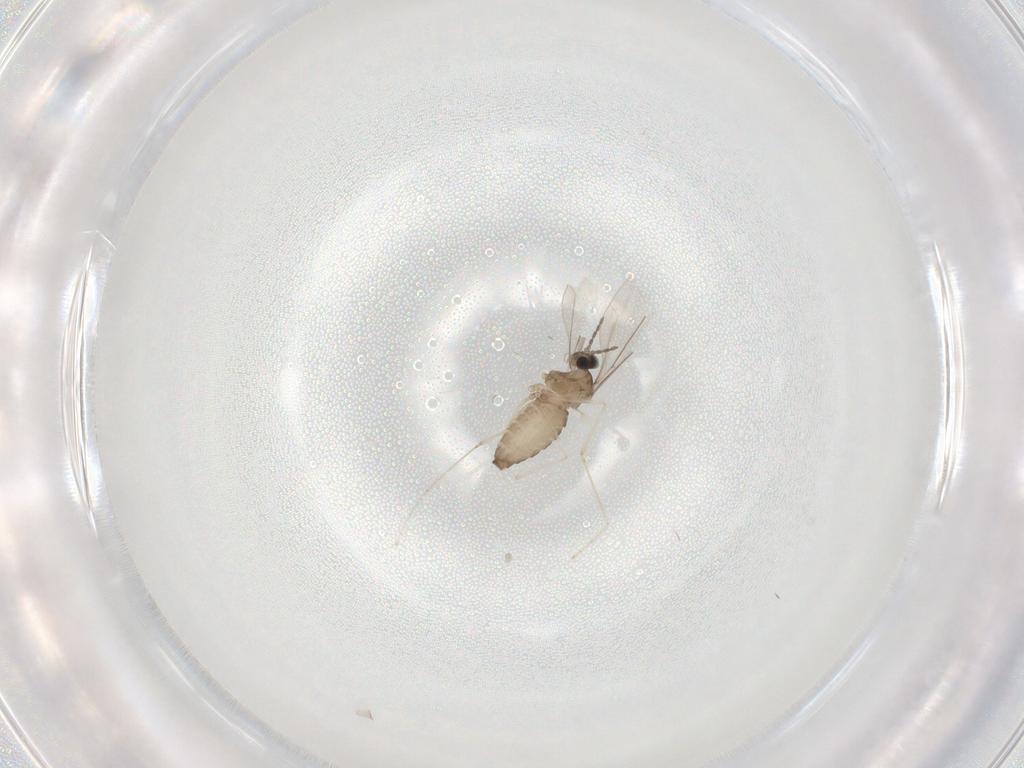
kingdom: Animalia
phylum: Arthropoda
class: Insecta
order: Diptera
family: Cecidomyiidae
